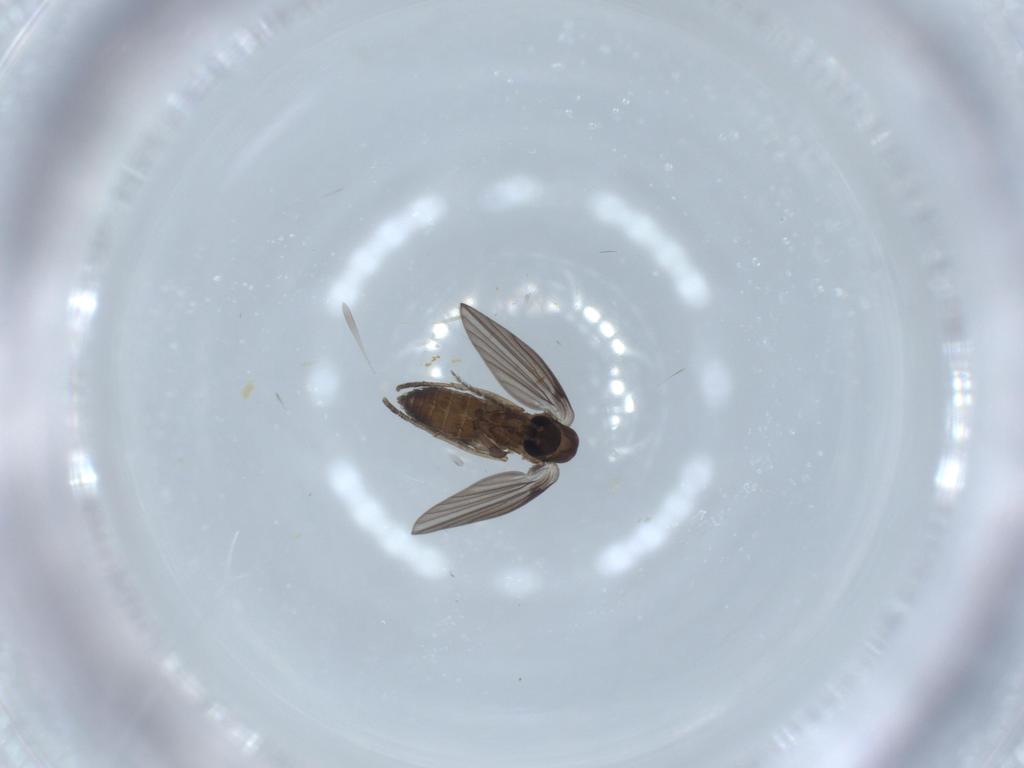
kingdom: Animalia
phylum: Arthropoda
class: Insecta
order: Diptera
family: Psychodidae
